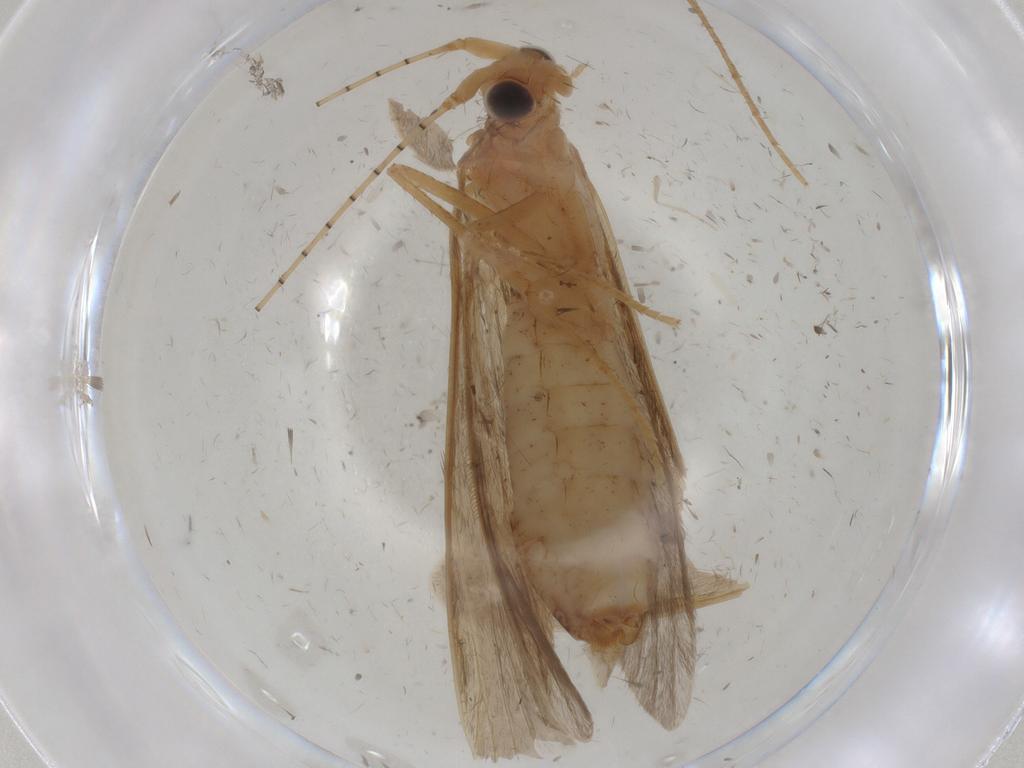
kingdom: Animalia
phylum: Arthropoda
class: Insecta
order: Trichoptera
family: Leptoceridae
